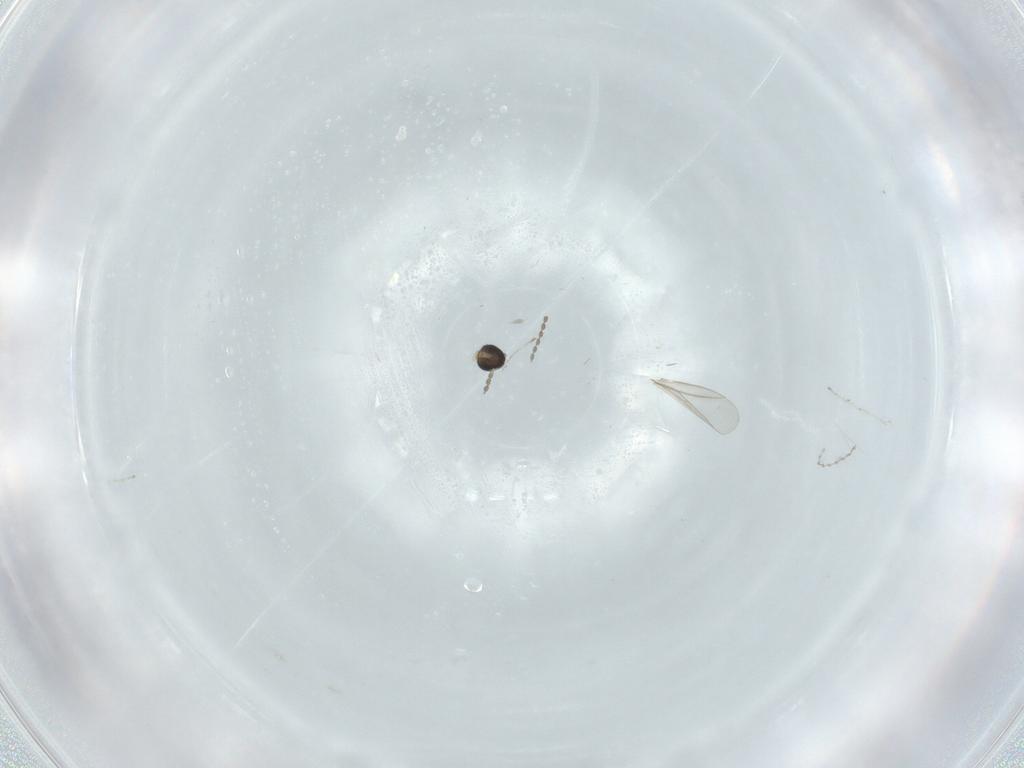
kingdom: Animalia
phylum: Arthropoda
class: Insecta
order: Diptera
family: Cecidomyiidae
